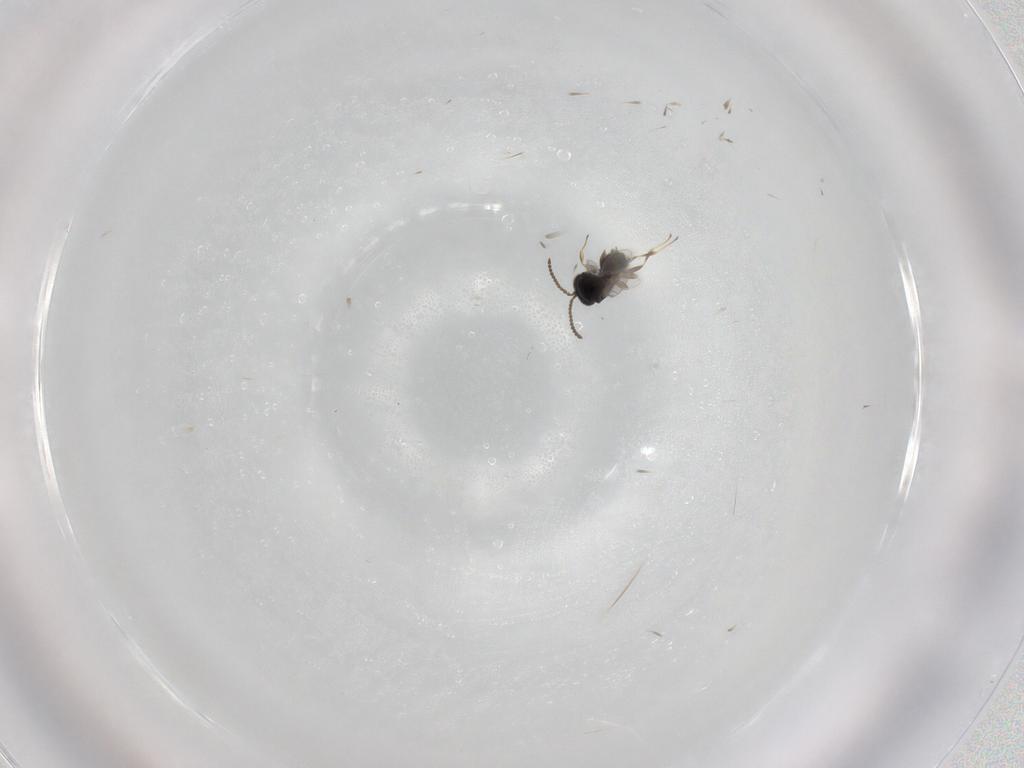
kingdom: Animalia
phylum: Arthropoda
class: Insecta
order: Hymenoptera
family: Scelionidae
